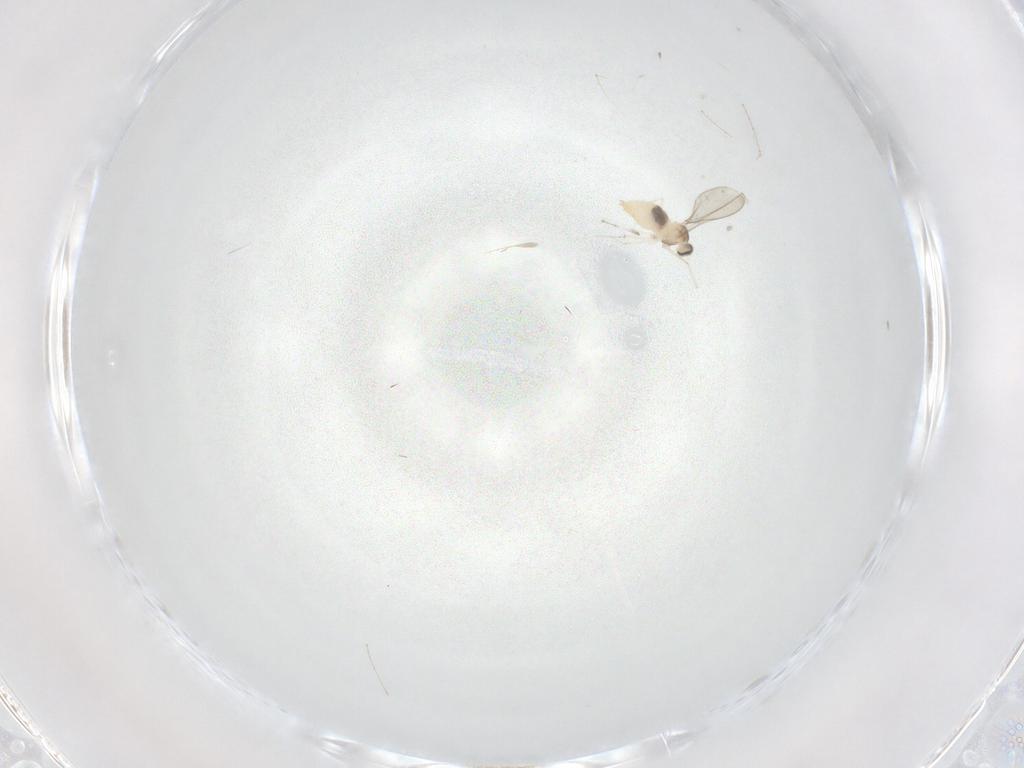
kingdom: Animalia
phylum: Arthropoda
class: Insecta
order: Diptera
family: Cecidomyiidae
